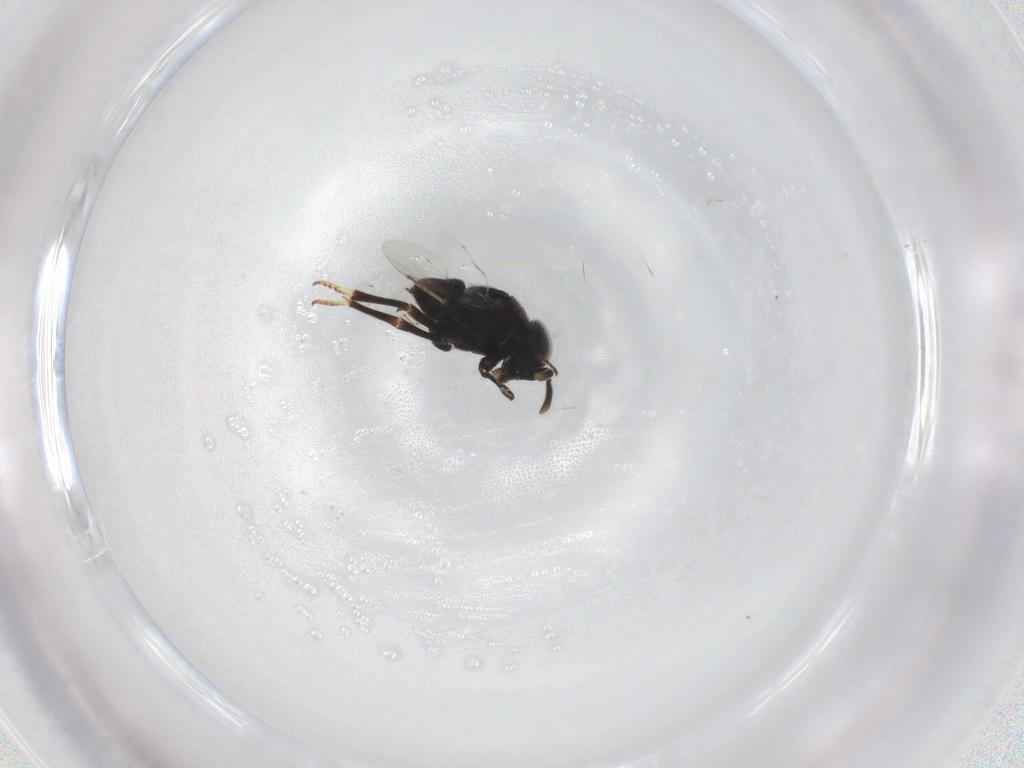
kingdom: Animalia
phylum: Arthropoda
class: Insecta
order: Hymenoptera
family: Encyrtidae
